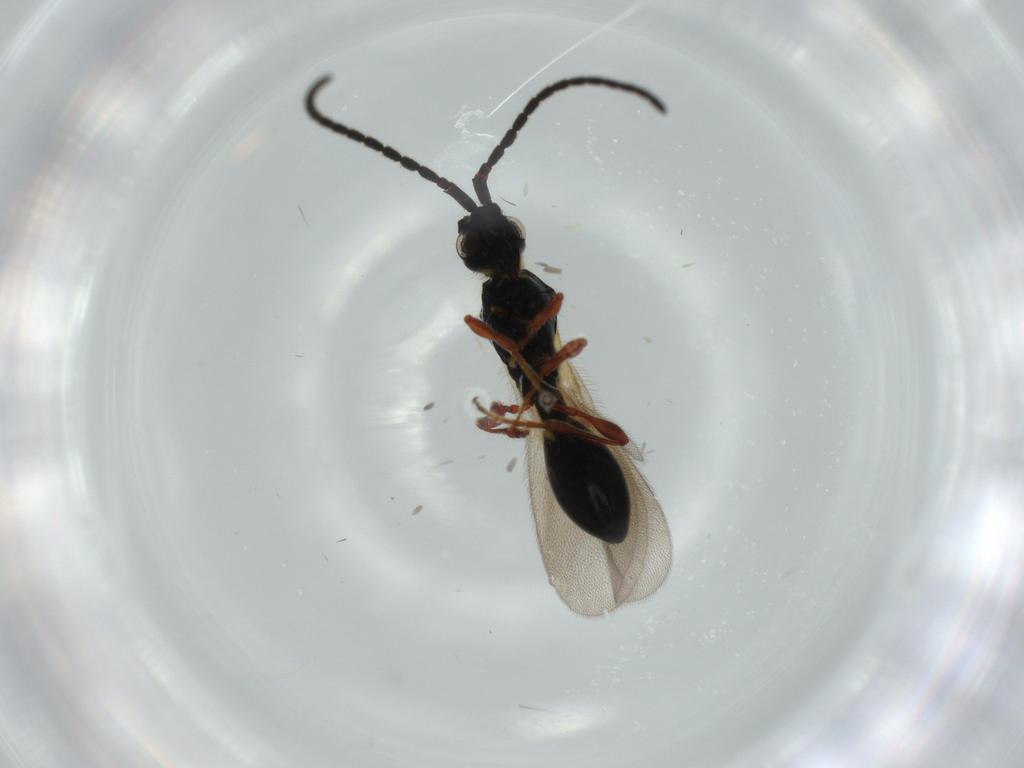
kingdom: Animalia
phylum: Arthropoda
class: Insecta
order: Hymenoptera
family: Diapriidae
